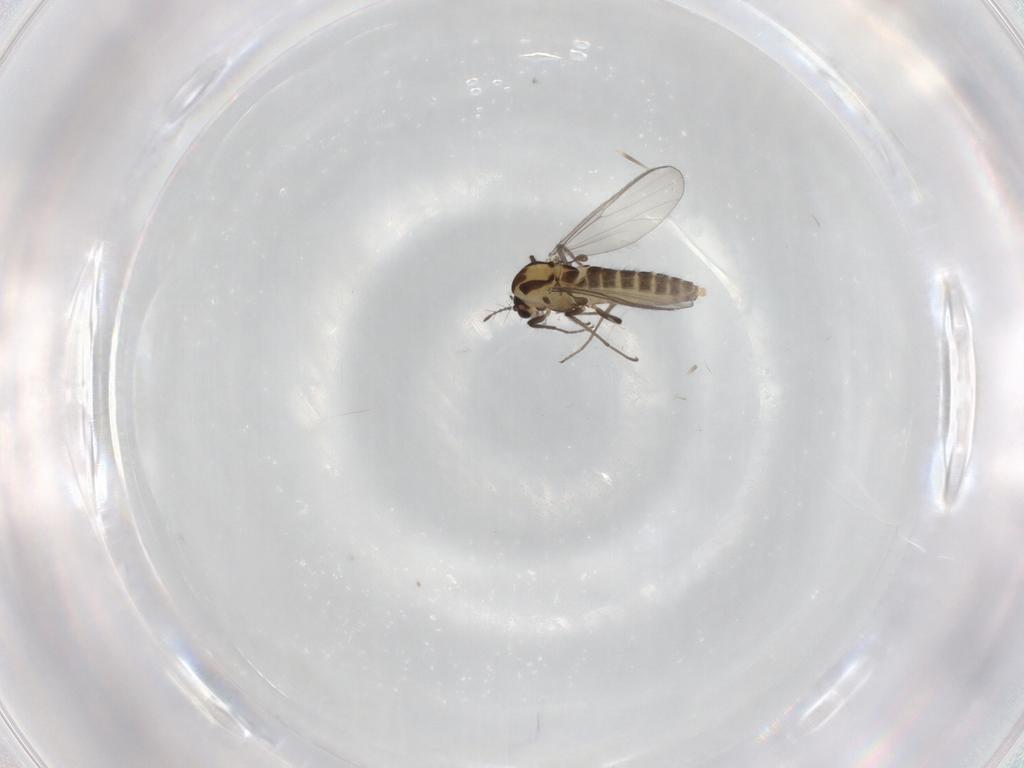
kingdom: Animalia
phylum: Arthropoda
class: Insecta
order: Diptera
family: Chironomidae
